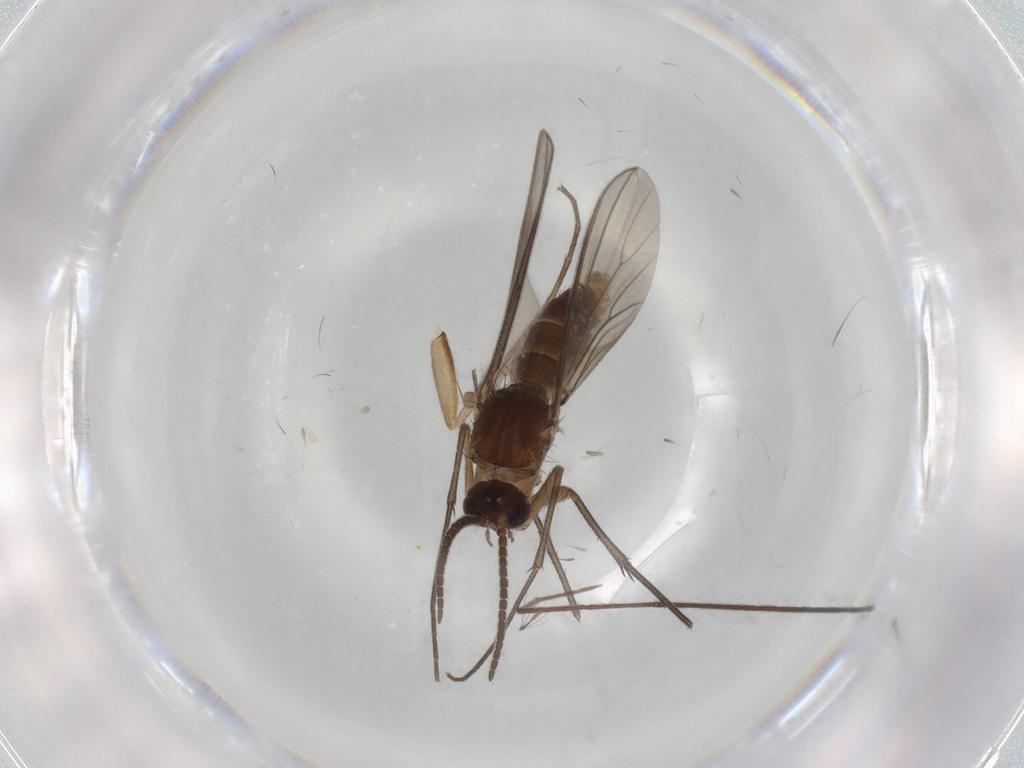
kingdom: Animalia
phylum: Arthropoda
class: Insecta
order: Diptera
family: Mycetophilidae
